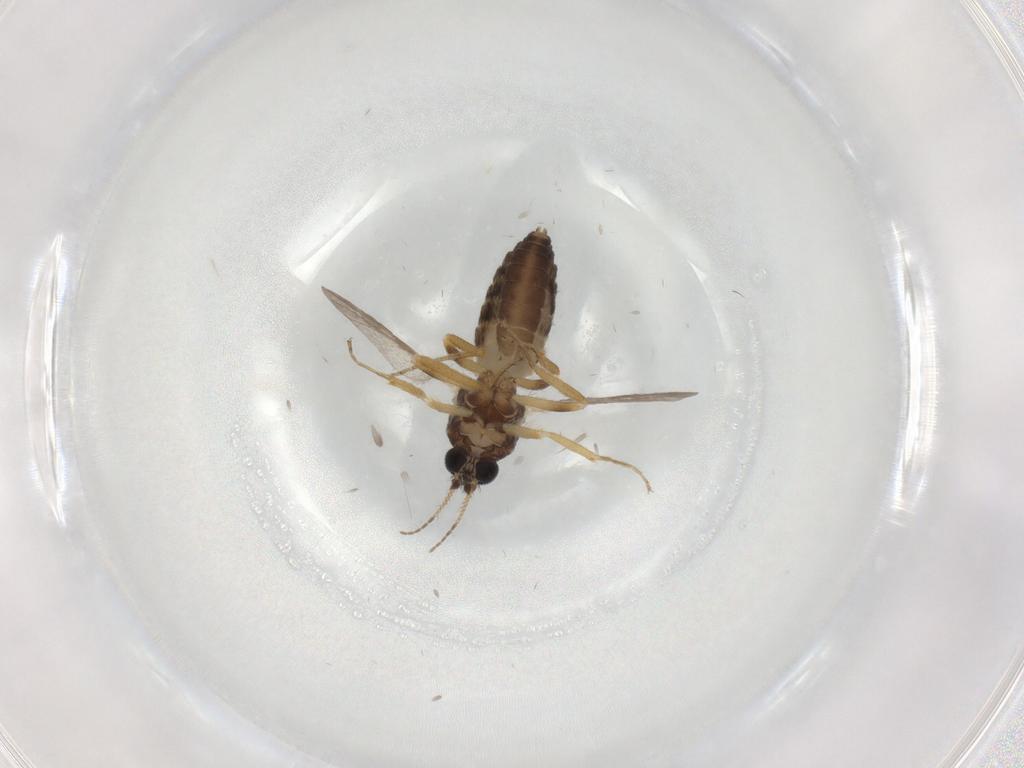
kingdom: Animalia
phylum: Arthropoda
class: Insecta
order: Diptera
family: Ceratopogonidae
